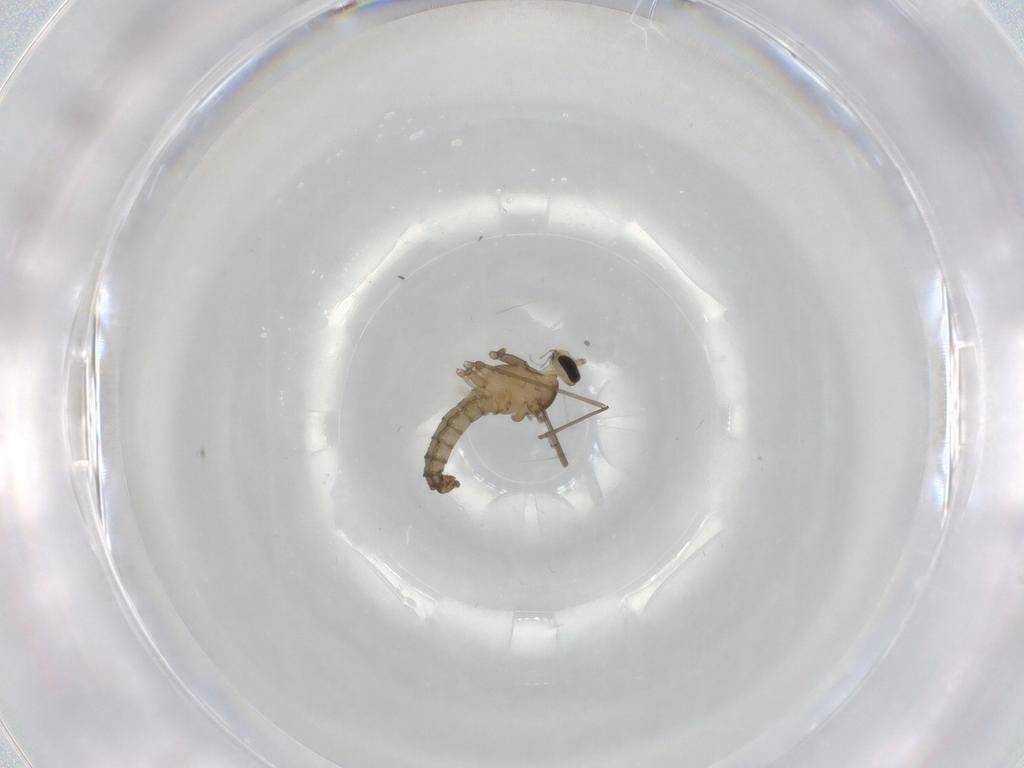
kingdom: Animalia
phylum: Arthropoda
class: Insecta
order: Diptera
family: Cecidomyiidae
